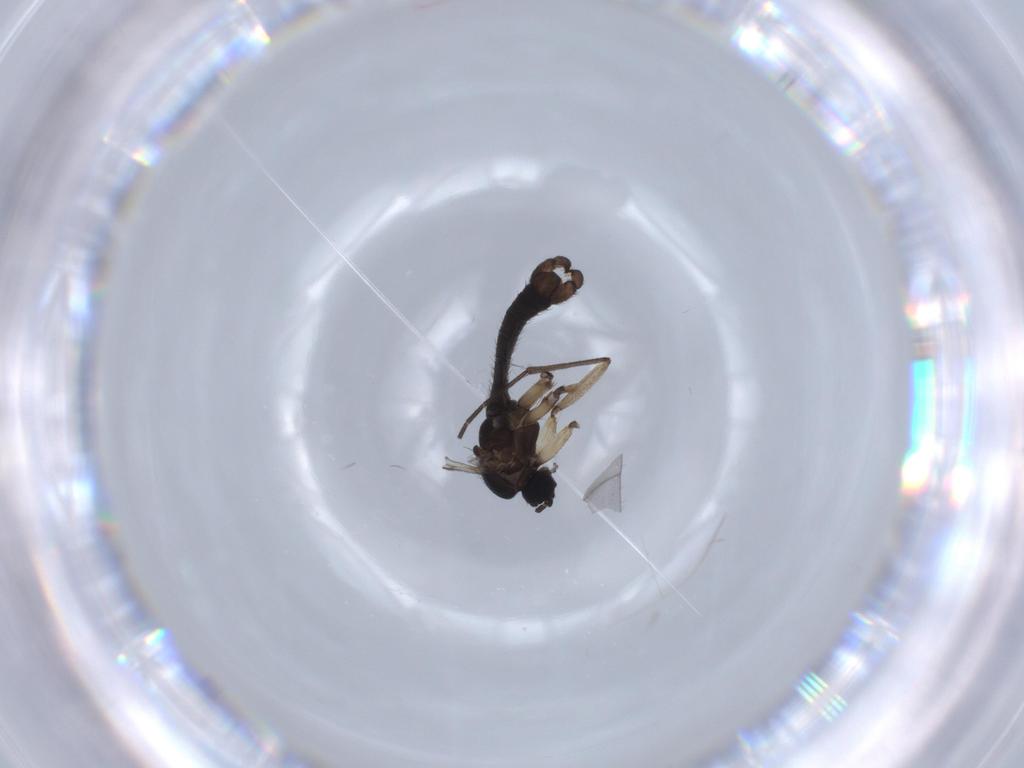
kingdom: Animalia
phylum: Arthropoda
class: Insecta
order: Diptera
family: Sciaridae
